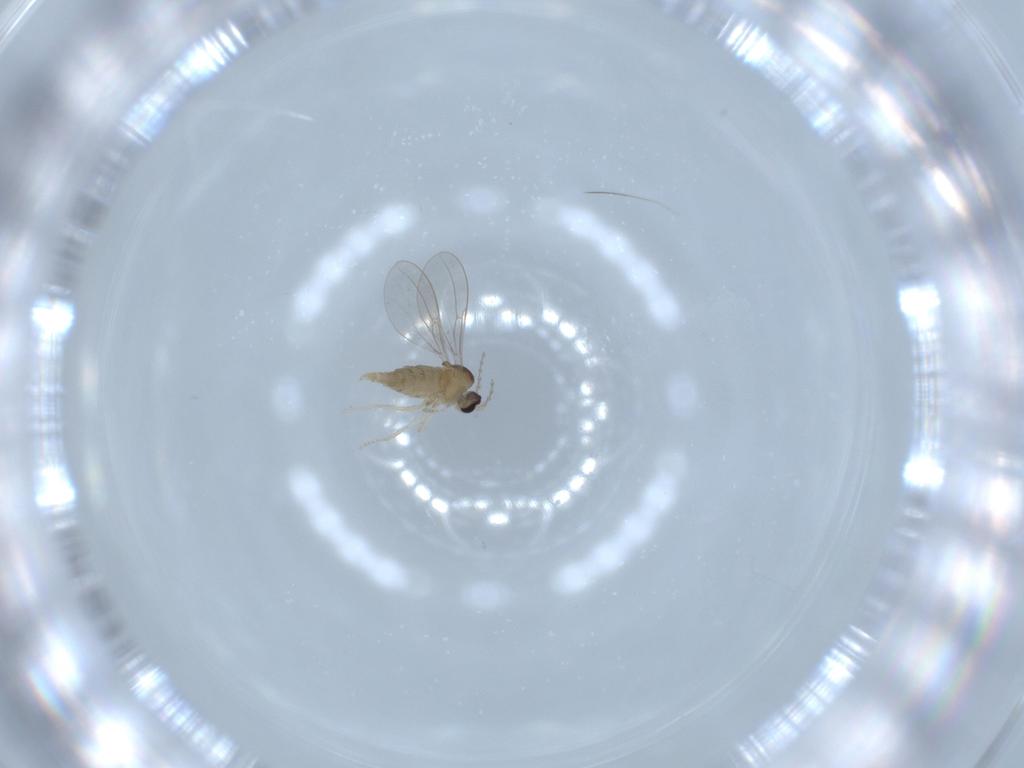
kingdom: Animalia
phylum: Arthropoda
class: Insecta
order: Diptera
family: Cecidomyiidae
